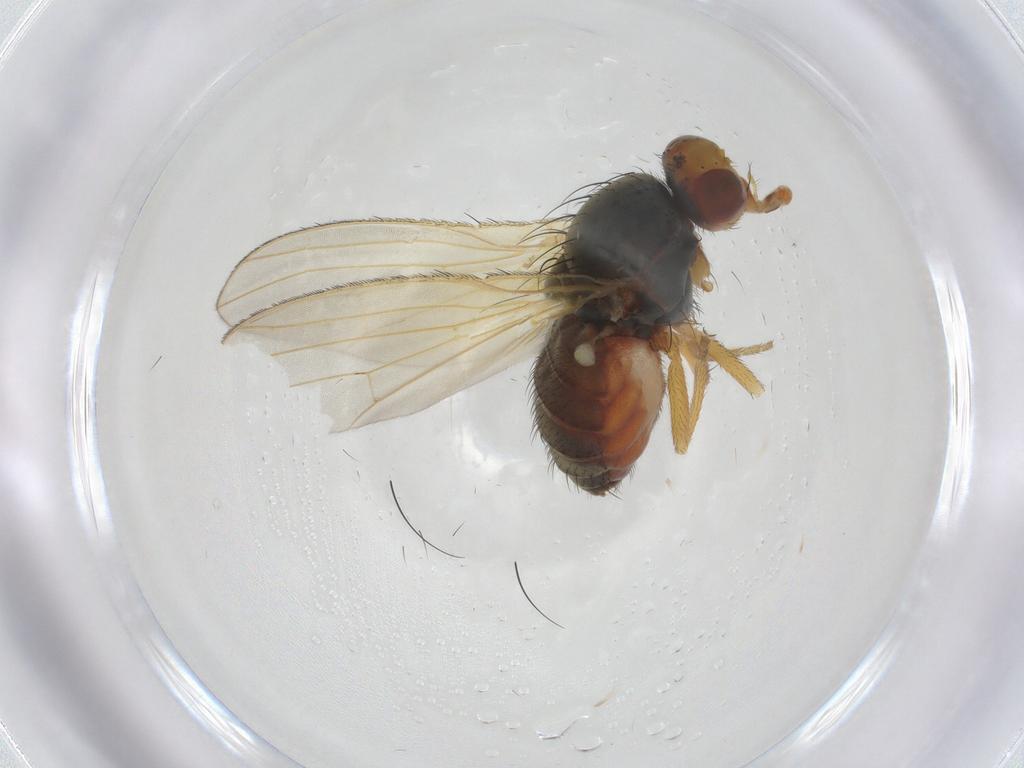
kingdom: Animalia
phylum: Arthropoda
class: Insecta
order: Diptera
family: Heleomyzidae
